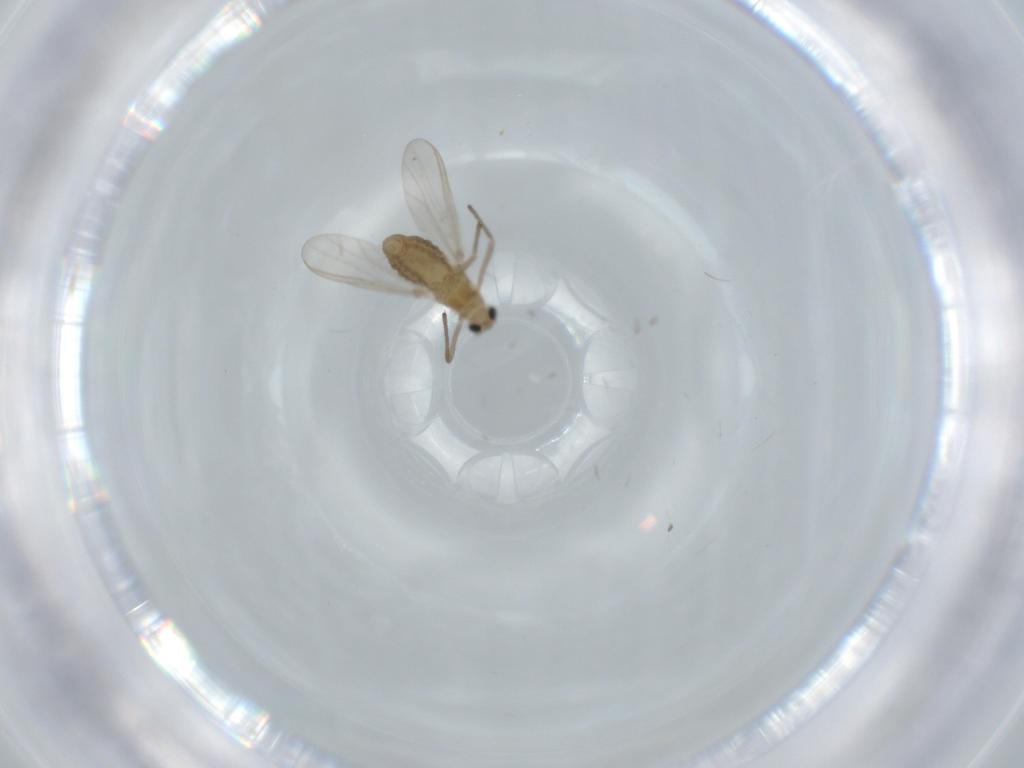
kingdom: Animalia
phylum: Arthropoda
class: Insecta
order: Diptera
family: Chironomidae
